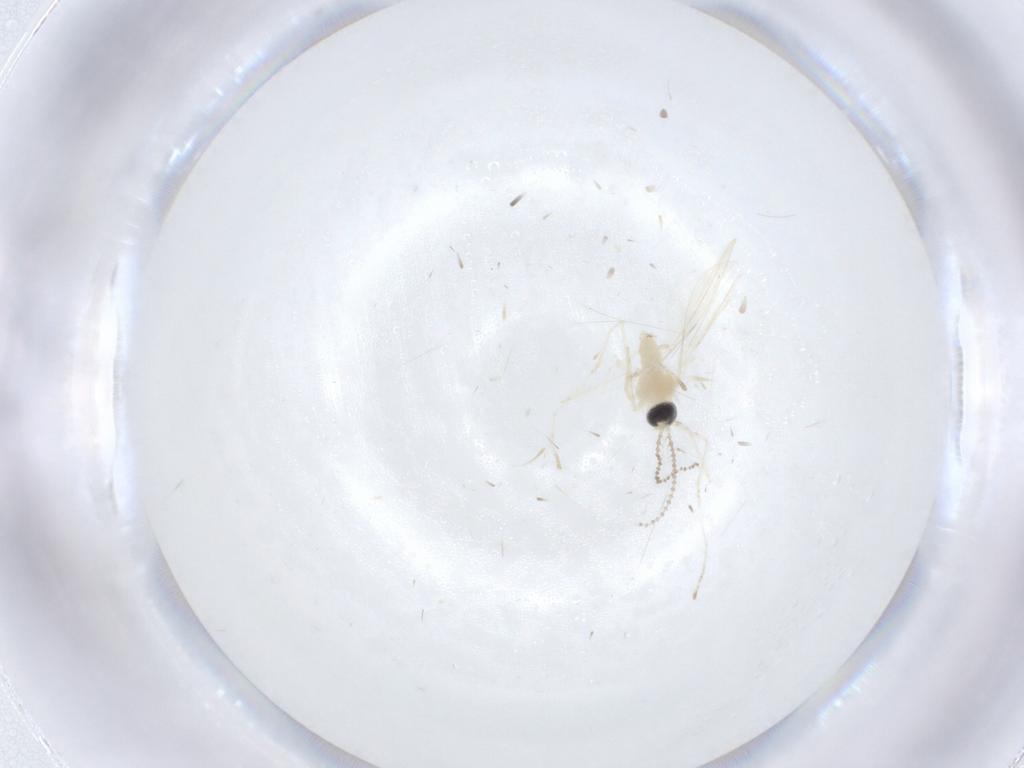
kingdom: Animalia
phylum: Arthropoda
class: Insecta
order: Diptera
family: Cecidomyiidae
